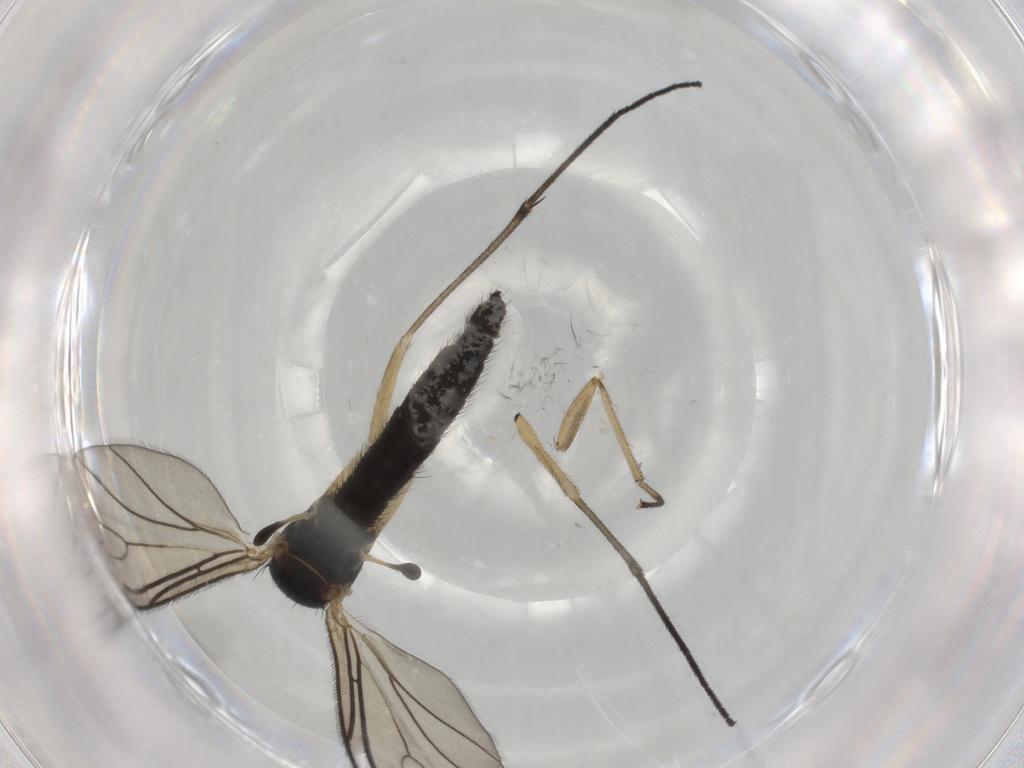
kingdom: Animalia
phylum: Arthropoda
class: Insecta
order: Diptera
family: Sciaridae
